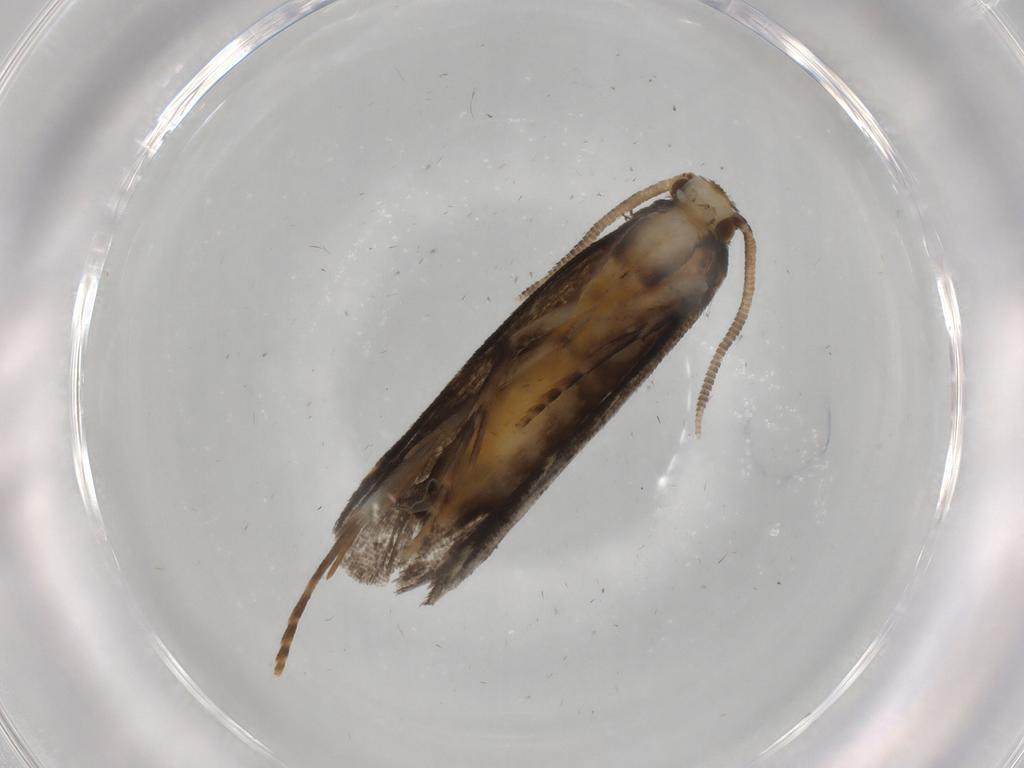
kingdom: Animalia
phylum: Arthropoda
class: Insecta
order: Lepidoptera
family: Dryadaulidae
